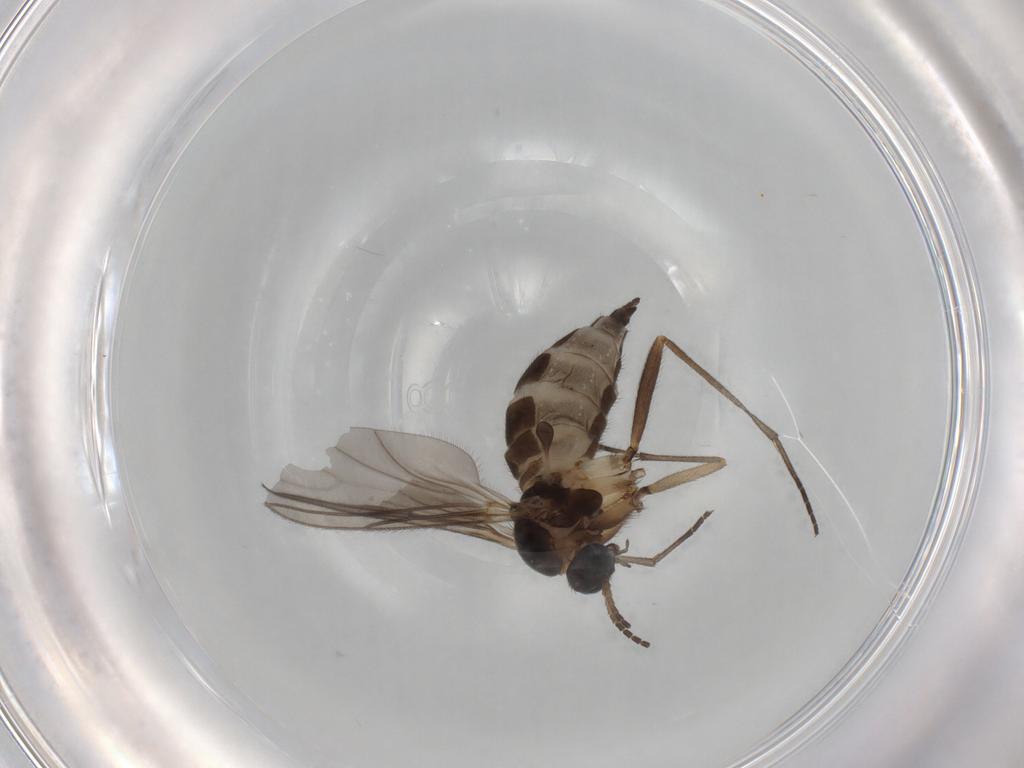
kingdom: Animalia
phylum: Arthropoda
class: Insecta
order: Diptera
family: Sciaridae
